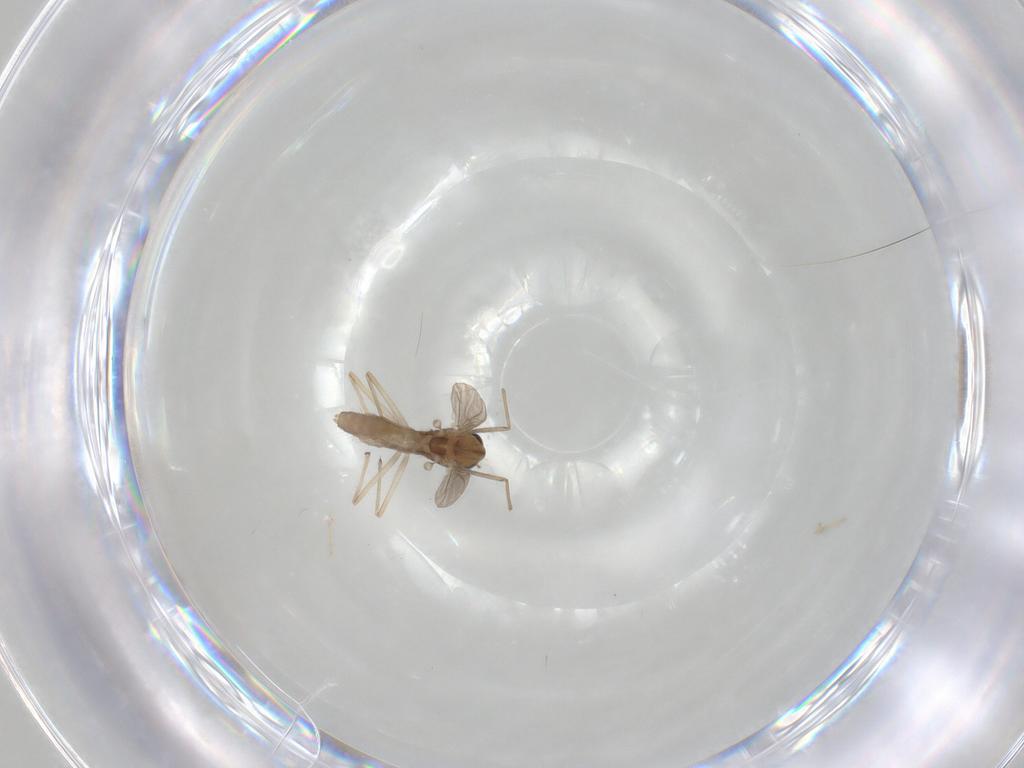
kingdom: Animalia
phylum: Arthropoda
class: Insecta
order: Diptera
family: Chironomidae
